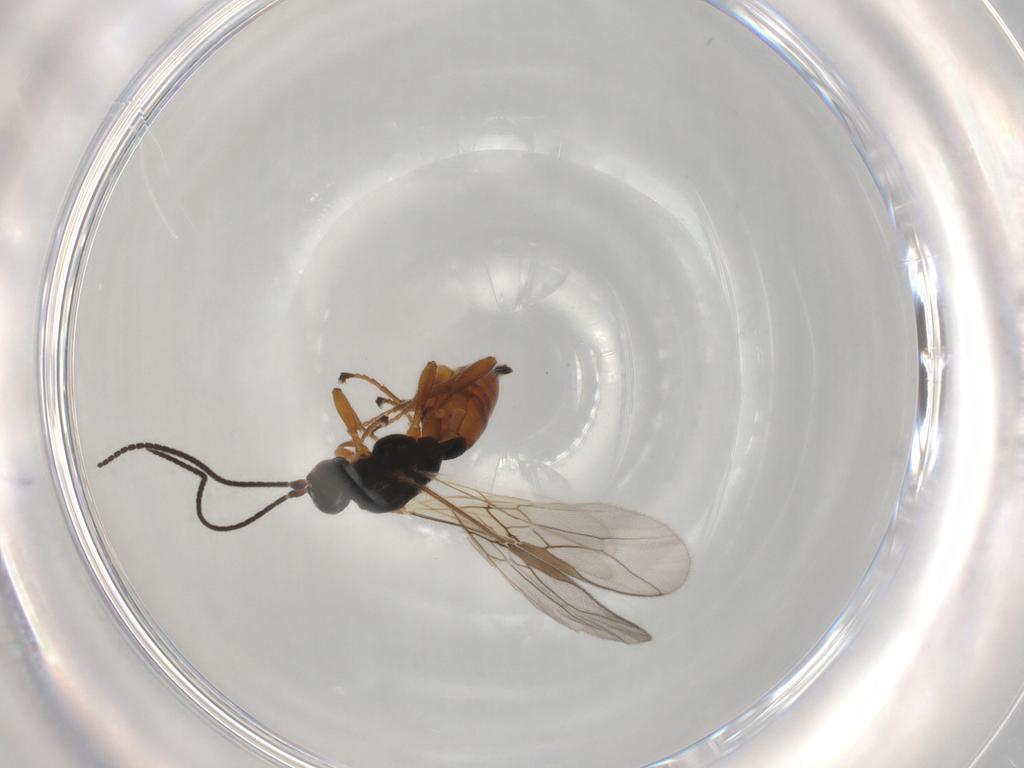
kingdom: Animalia
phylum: Arthropoda
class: Insecta
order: Hymenoptera
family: Braconidae
